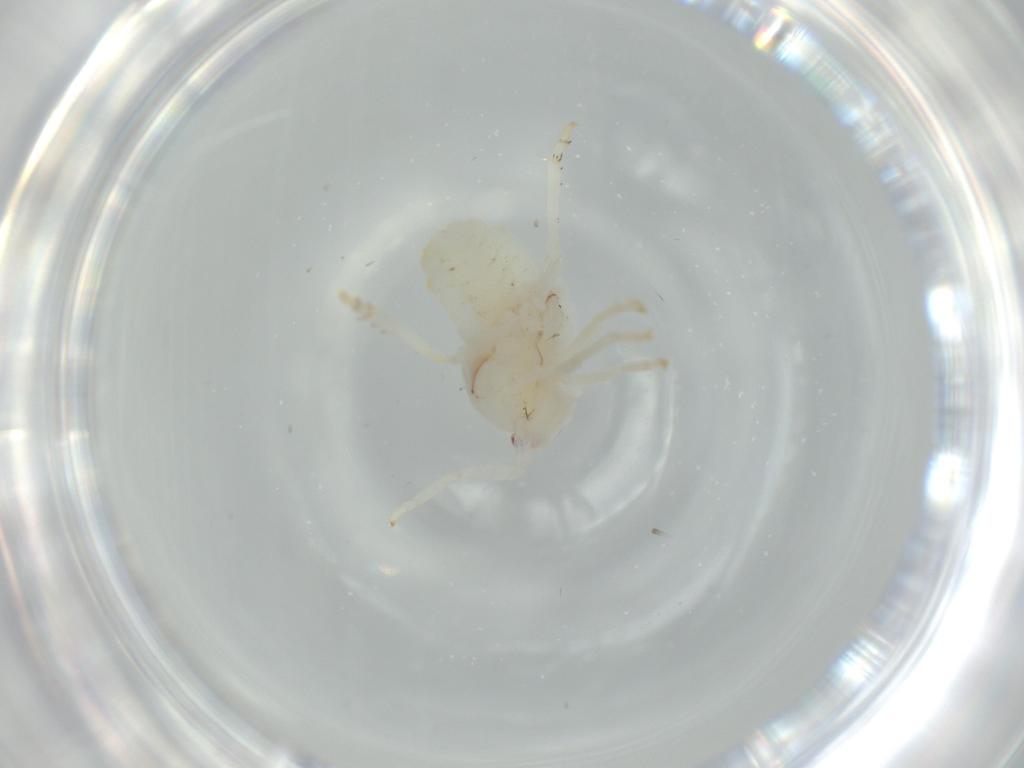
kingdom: Animalia
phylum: Arthropoda
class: Insecta
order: Hemiptera
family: Flatidae
